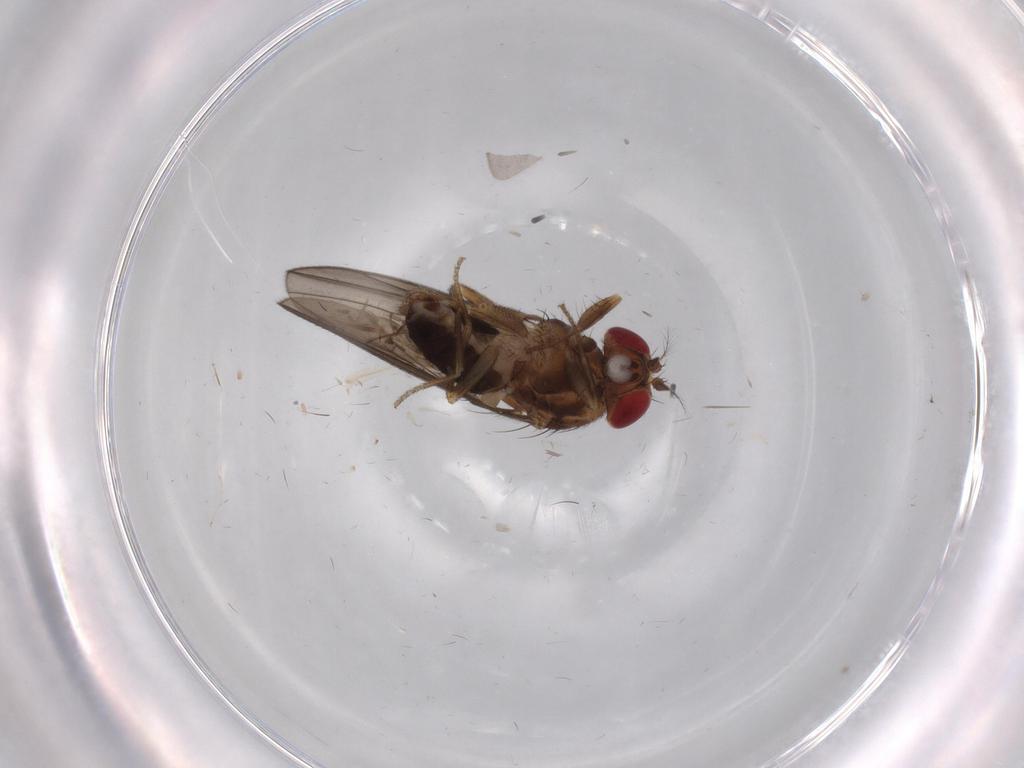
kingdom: Animalia
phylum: Arthropoda
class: Insecta
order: Diptera
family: Drosophilidae
